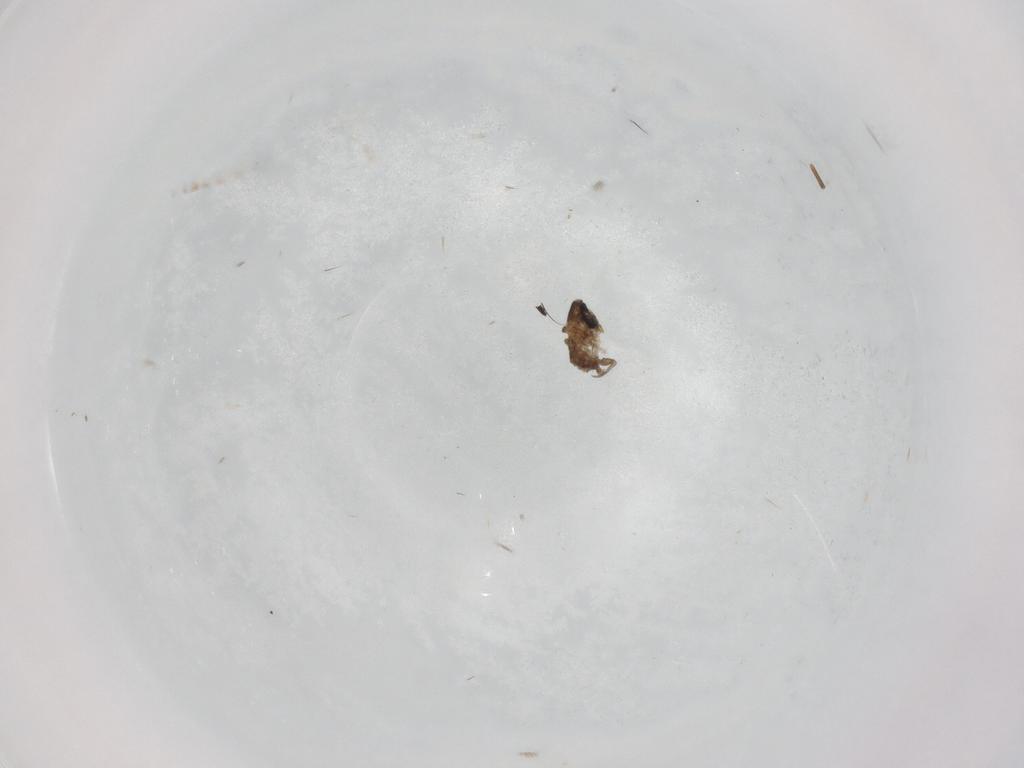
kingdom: Animalia
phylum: Arthropoda
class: Insecta
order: Diptera
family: Psychodidae
